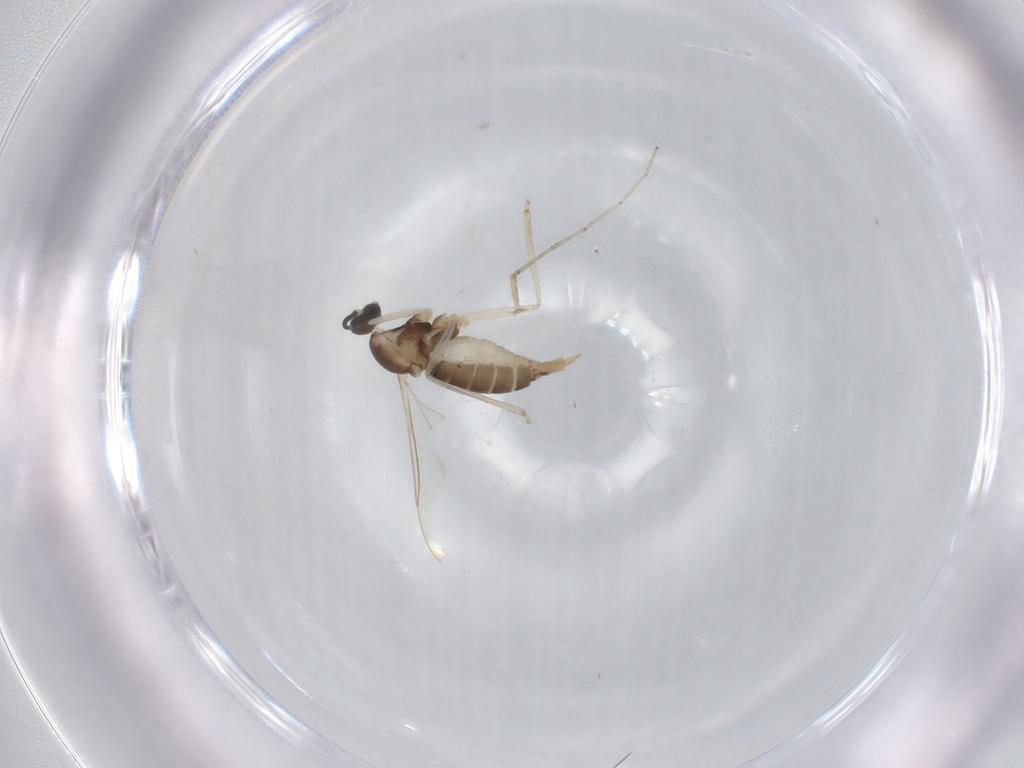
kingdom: Animalia
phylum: Arthropoda
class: Insecta
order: Diptera
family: Cecidomyiidae
